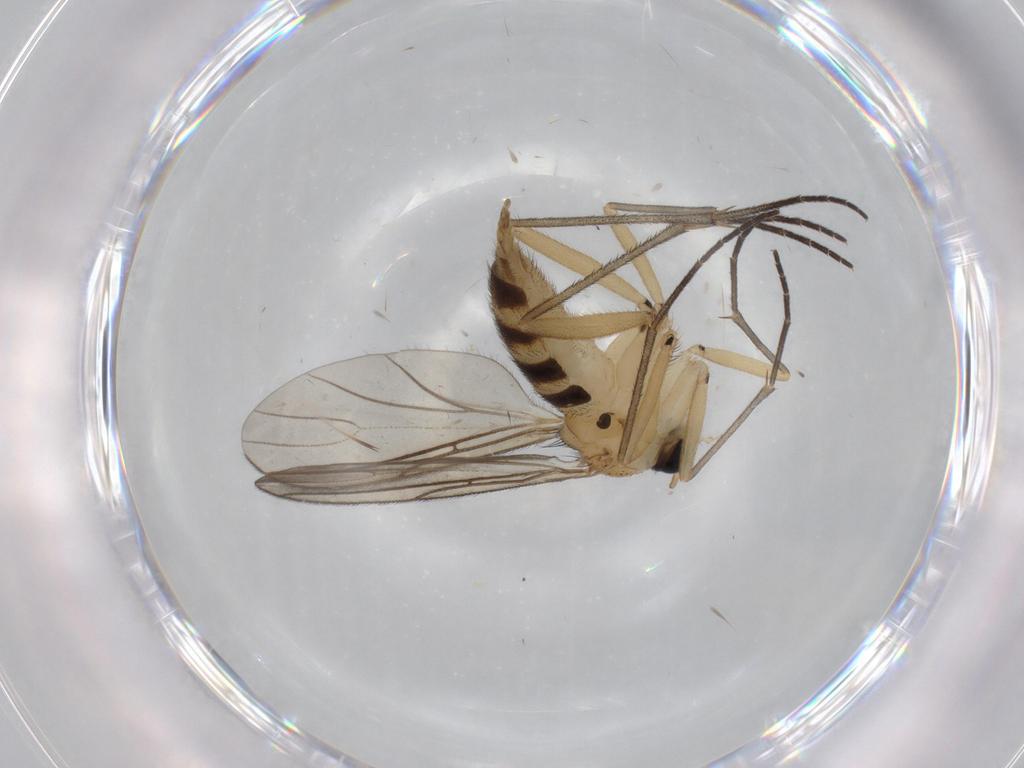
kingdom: Animalia
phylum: Arthropoda
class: Insecta
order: Diptera
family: Sciaridae
